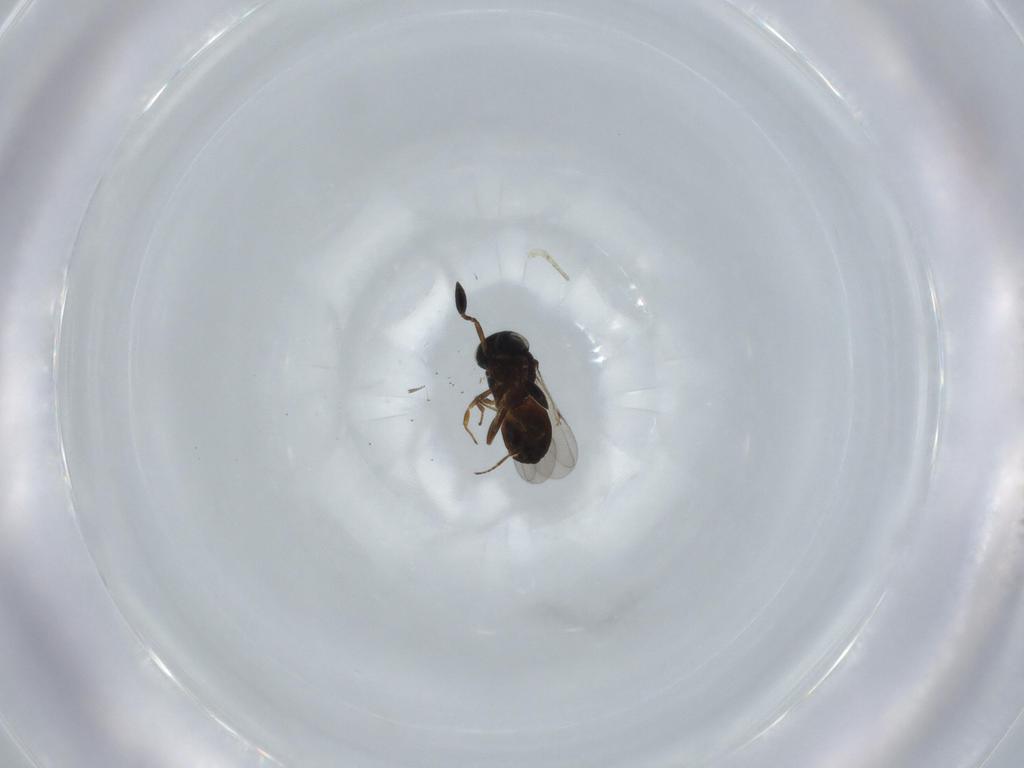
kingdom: Animalia
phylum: Arthropoda
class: Insecta
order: Hymenoptera
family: Scelionidae
